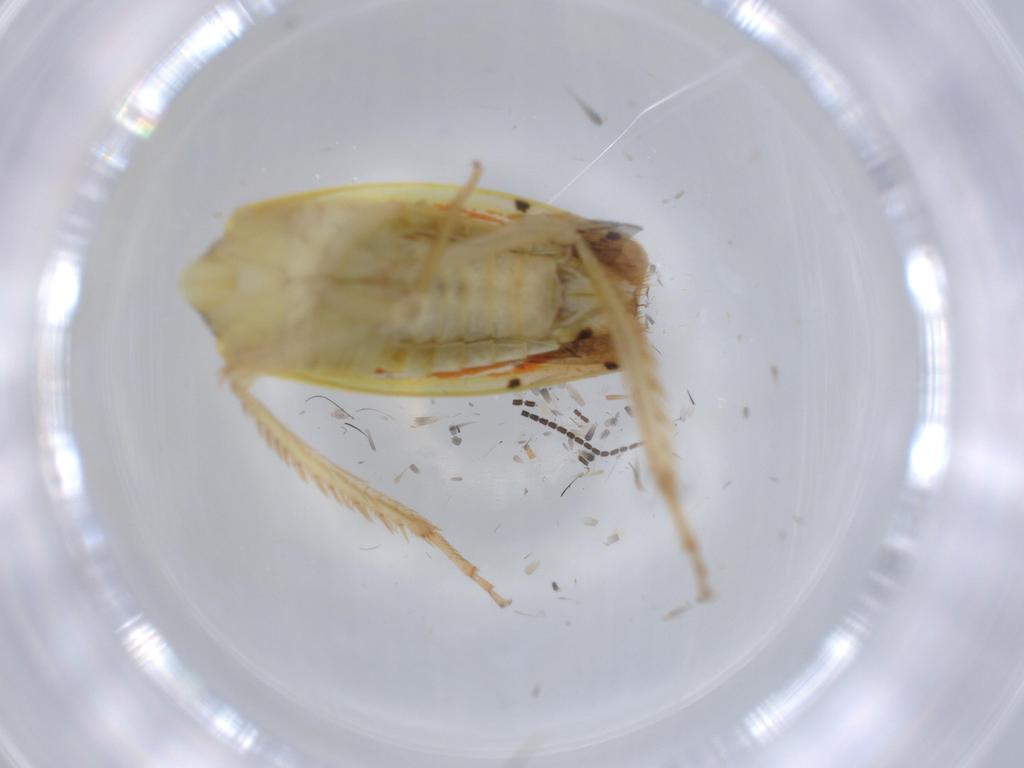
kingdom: Animalia
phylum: Arthropoda
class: Insecta
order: Hemiptera
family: Cicadellidae
